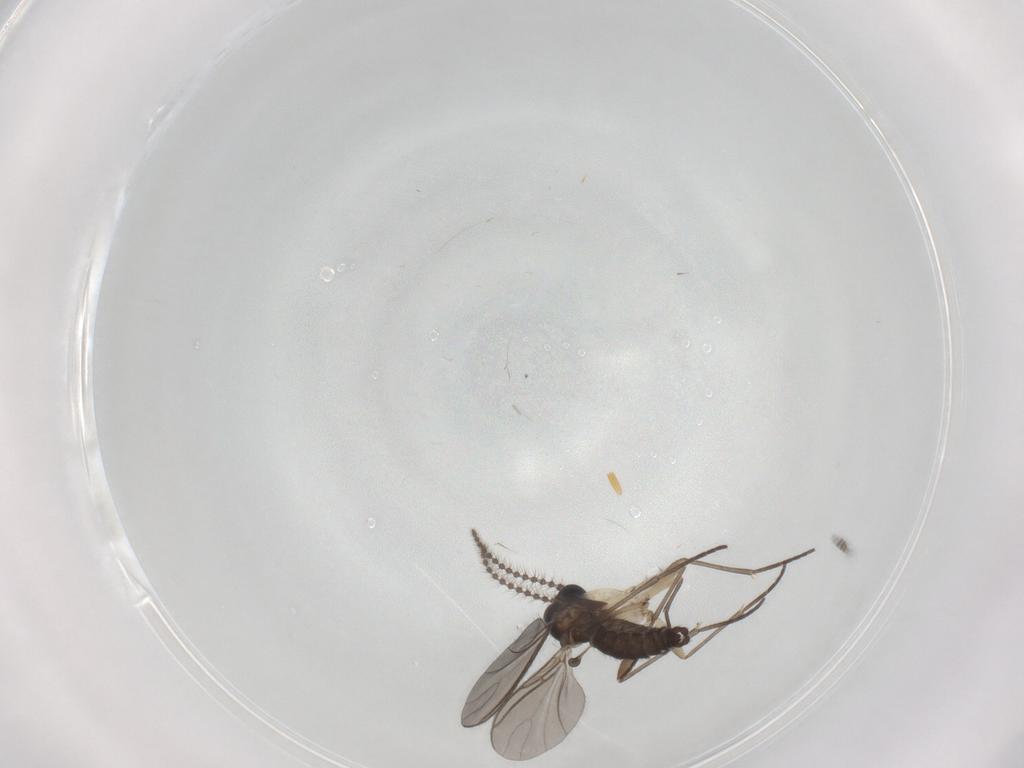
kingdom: Animalia
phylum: Arthropoda
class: Insecta
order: Diptera
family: Sciaridae
